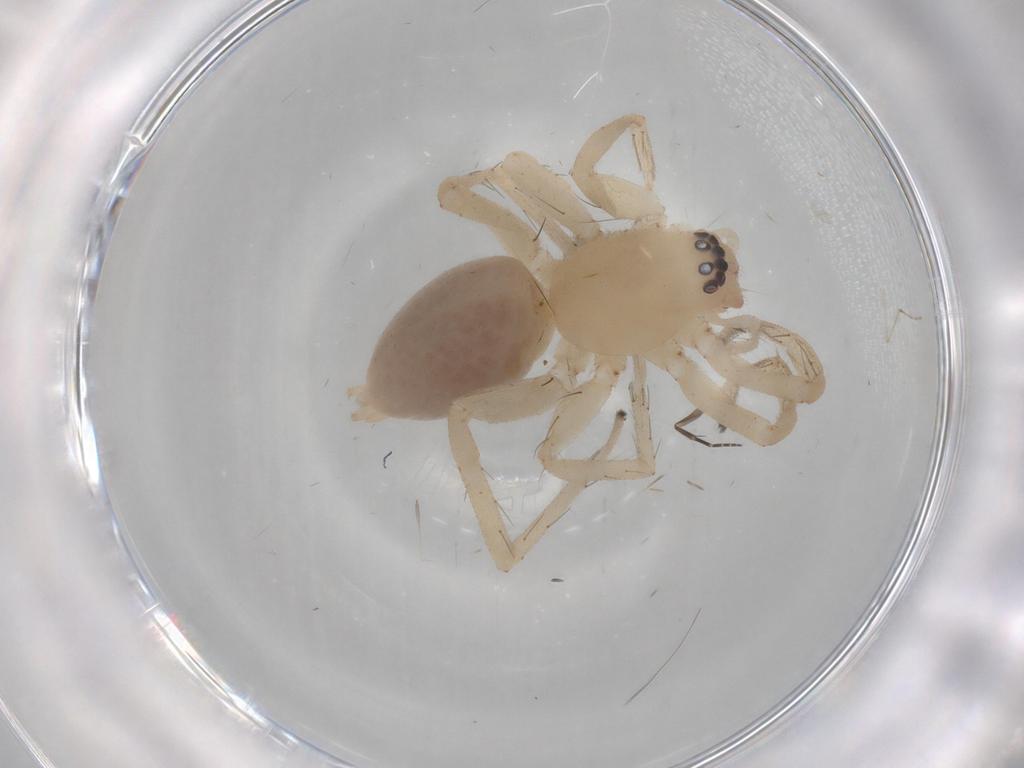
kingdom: Animalia
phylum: Arthropoda
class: Arachnida
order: Araneae
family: Clubionidae
